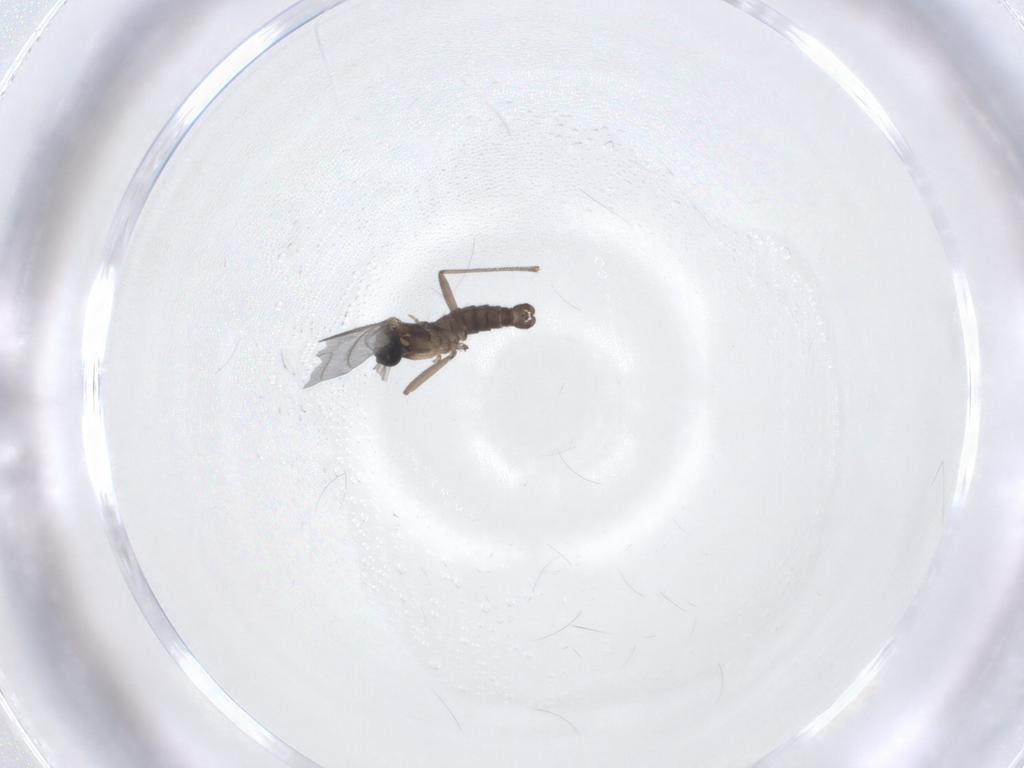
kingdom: Animalia
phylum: Arthropoda
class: Insecta
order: Diptera
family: Sciaridae
